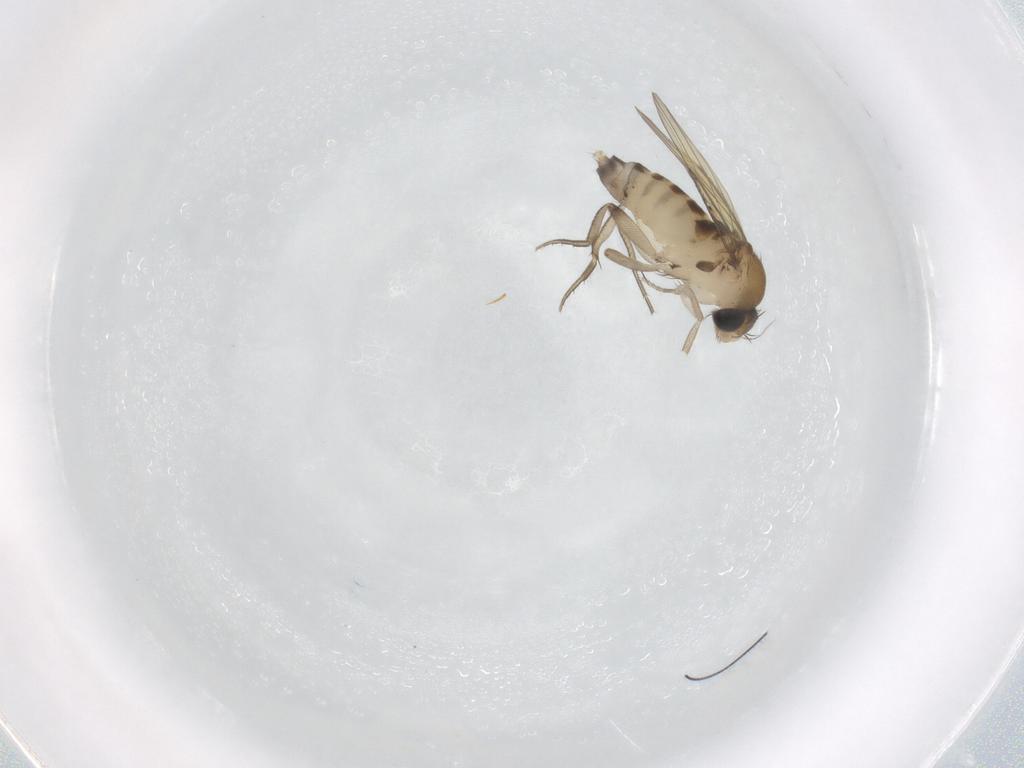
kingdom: Animalia
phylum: Arthropoda
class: Insecta
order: Diptera
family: Phoridae
